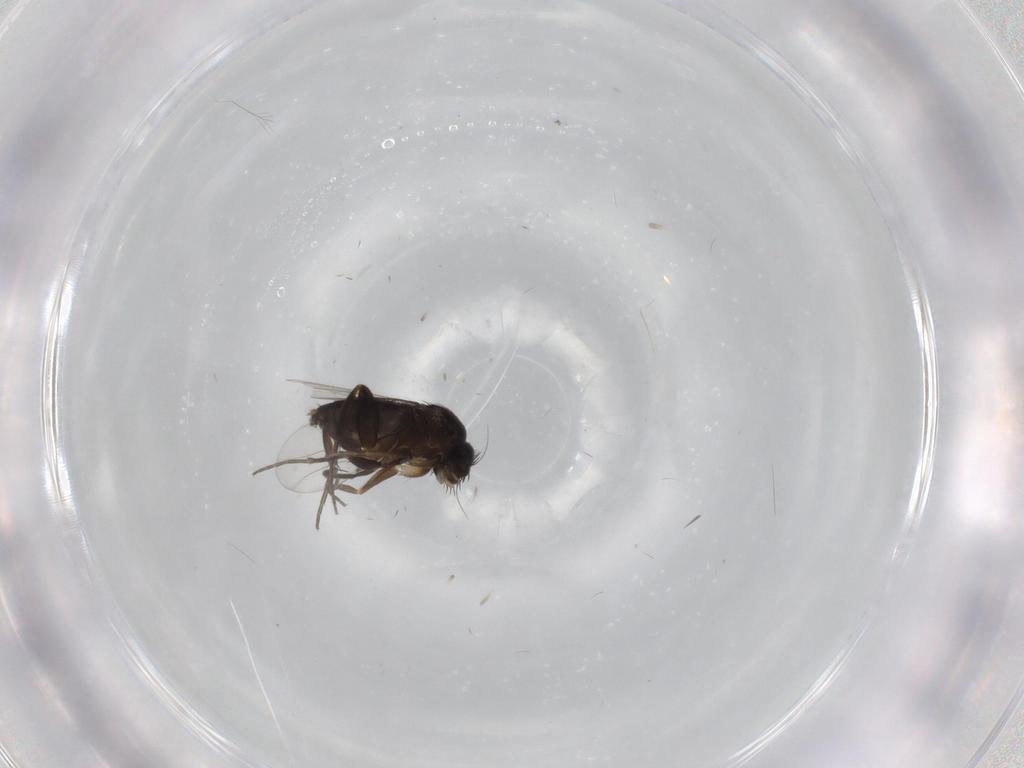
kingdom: Animalia
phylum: Arthropoda
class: Insecta
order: Diptera
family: Phoridae
